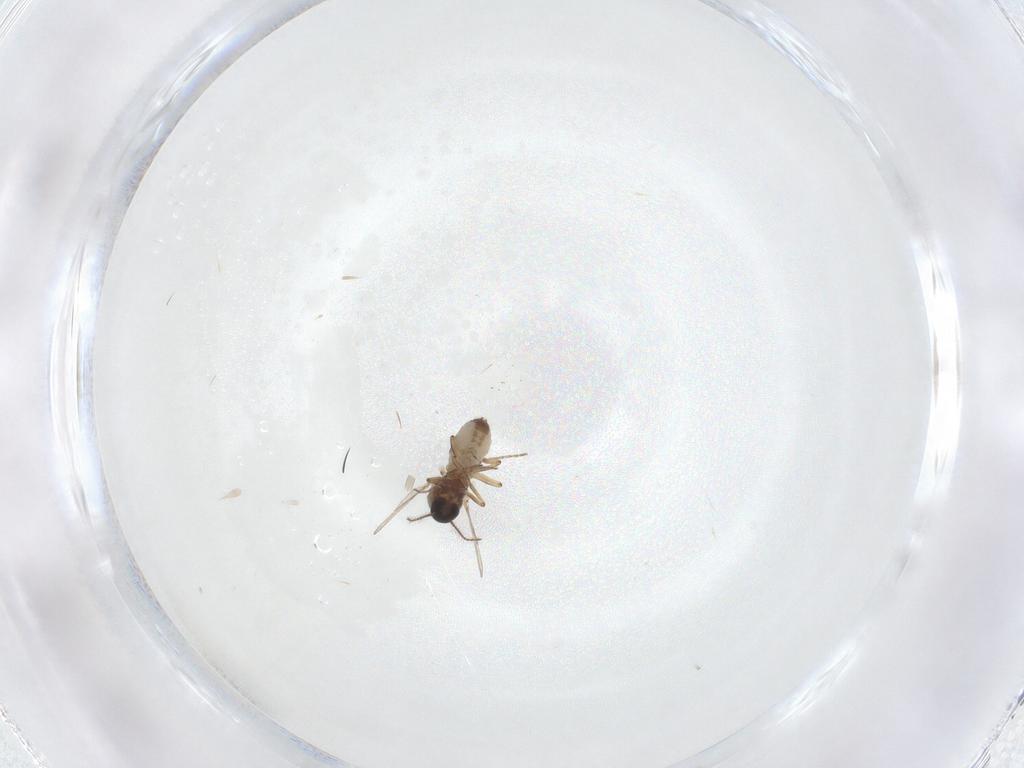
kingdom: Animalia
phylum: Arthropoda
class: Insecta
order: Diptera
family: Ceratopogonidae
